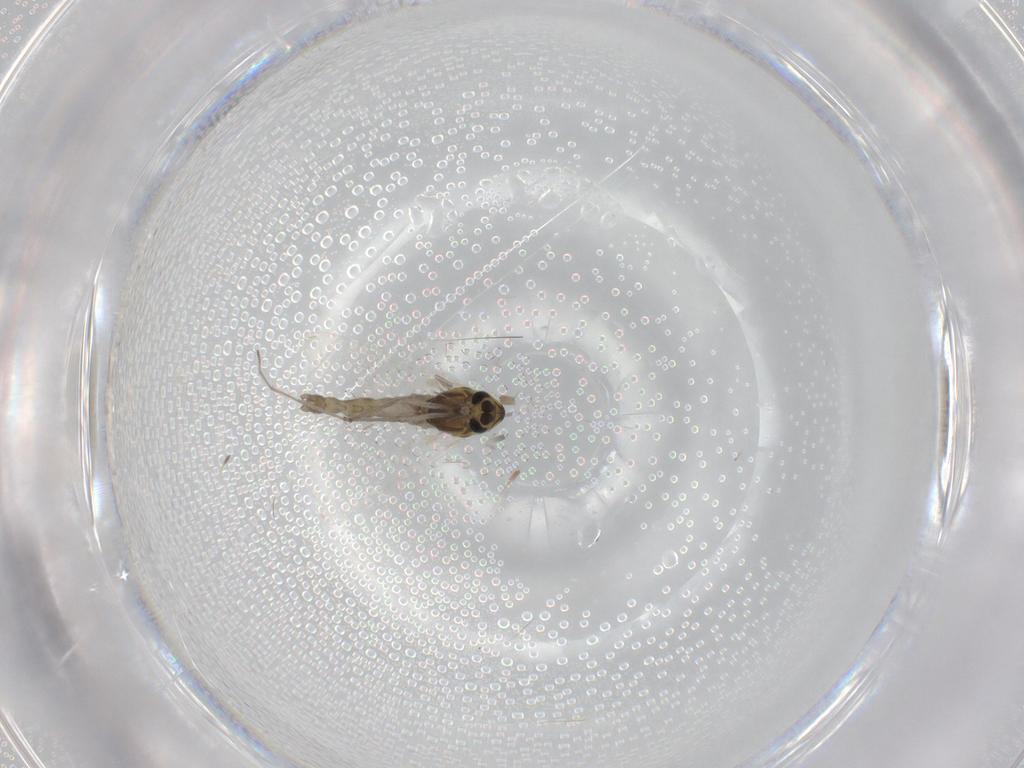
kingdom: Animalia
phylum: Arthropoda
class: Insecta
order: Diptera
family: Chironomidae
